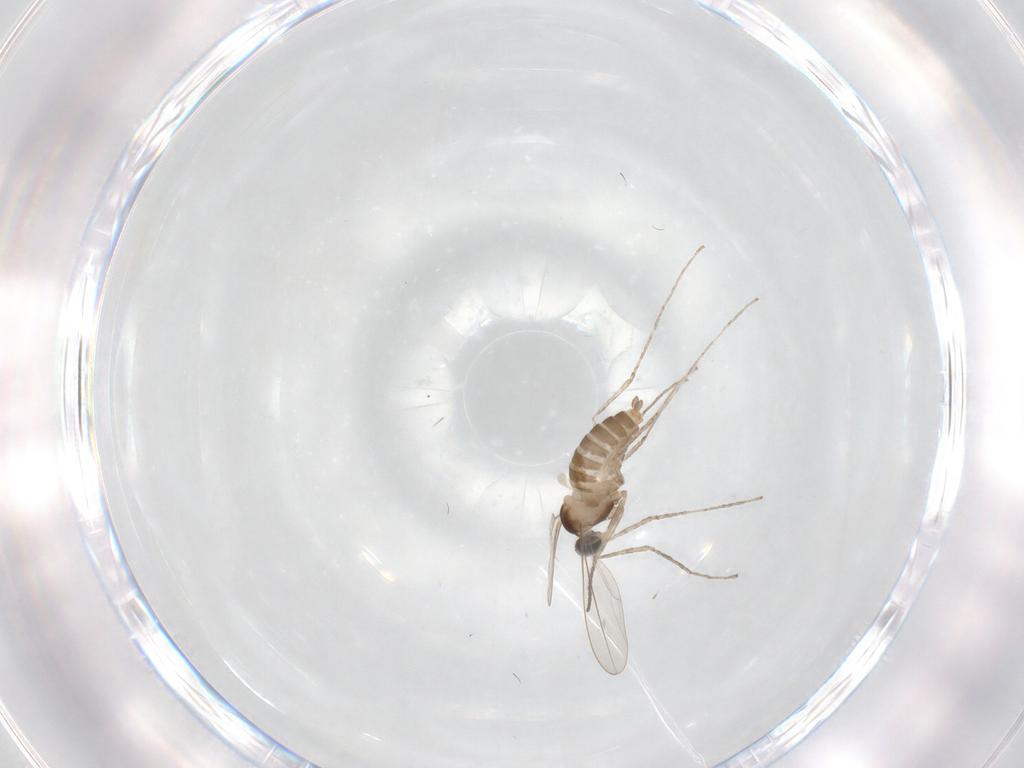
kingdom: Animalia
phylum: Arthropoda
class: Insecta
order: Diptera
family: Cecidomyiidae
